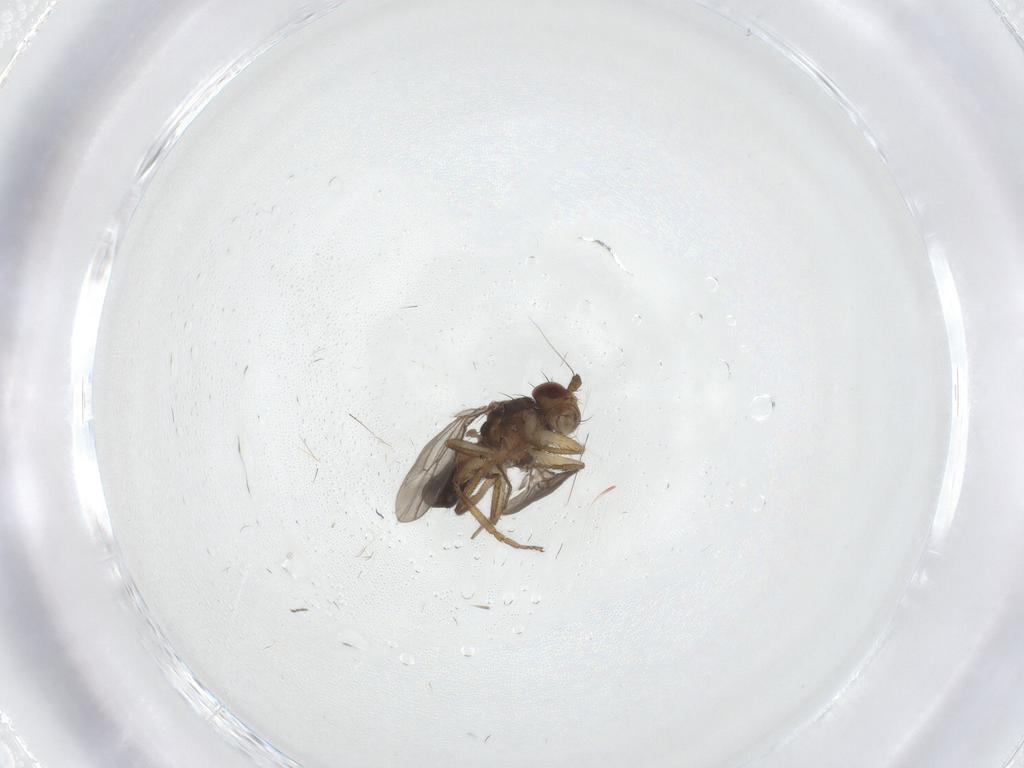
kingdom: Animalia
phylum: Arthropoda
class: Insecta
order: Diptera
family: Sphaeroceridae
